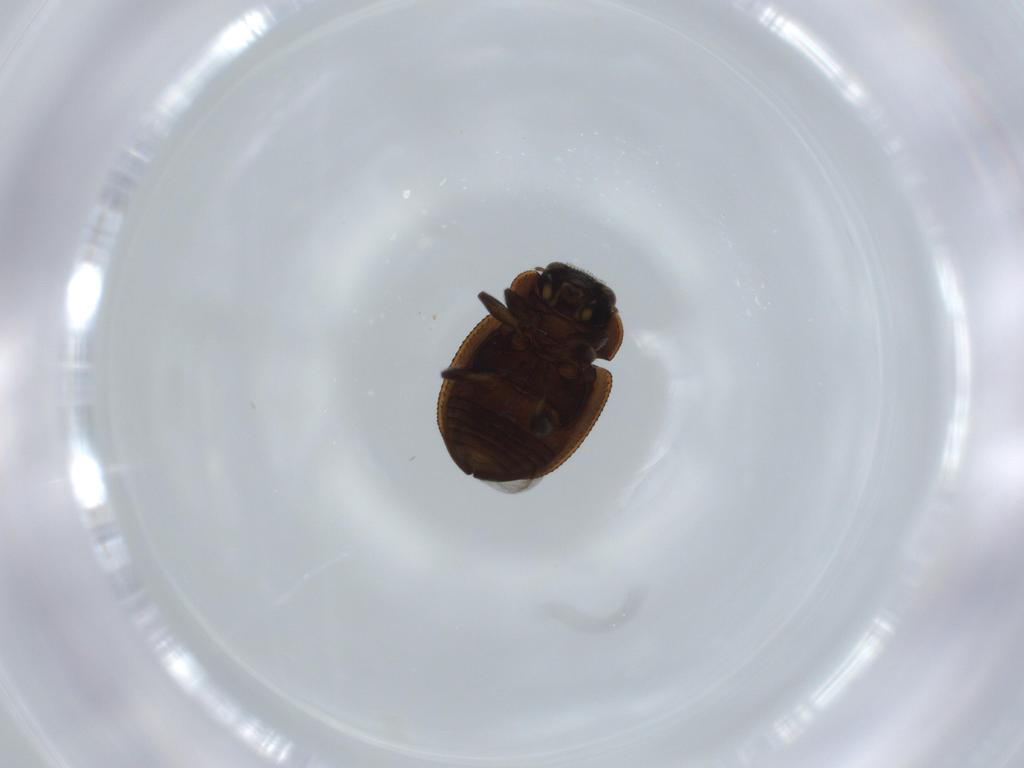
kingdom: Animalia
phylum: Arthropoda
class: Insecta
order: Coleoptera
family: Coccinellidae
